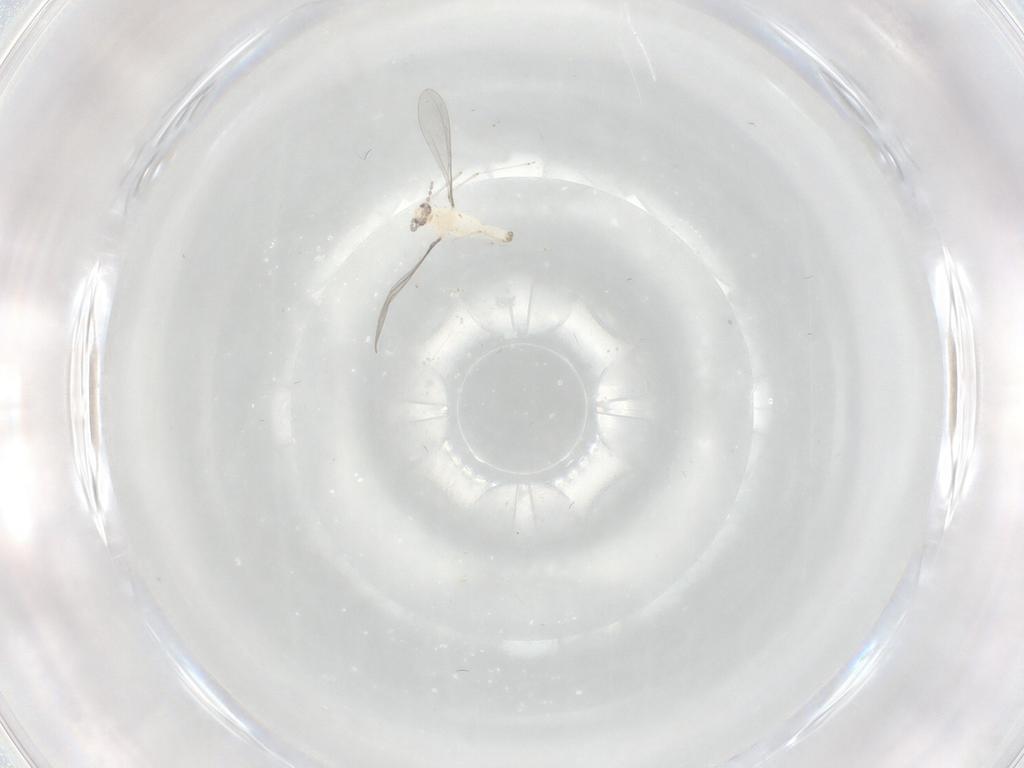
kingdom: Animalia
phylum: Arthropoda
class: Insecta
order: Diptera
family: Cecidomyiidae
